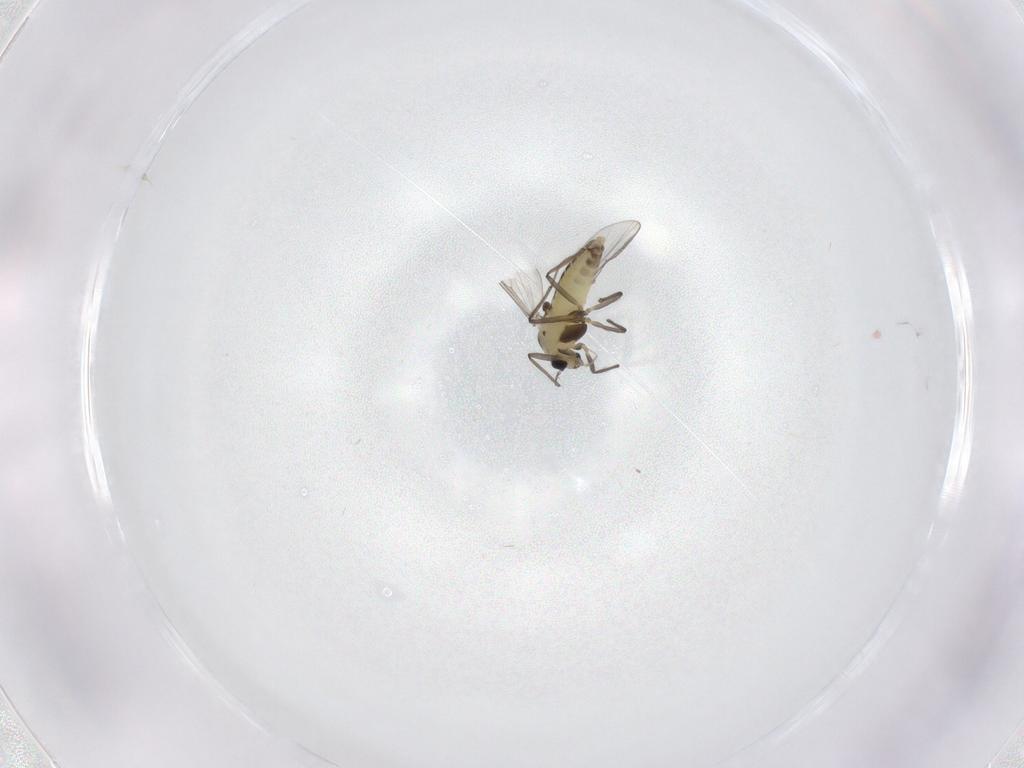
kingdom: Animalia
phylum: Arthropoda
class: Insecta
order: Diptera
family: Chironomidae
